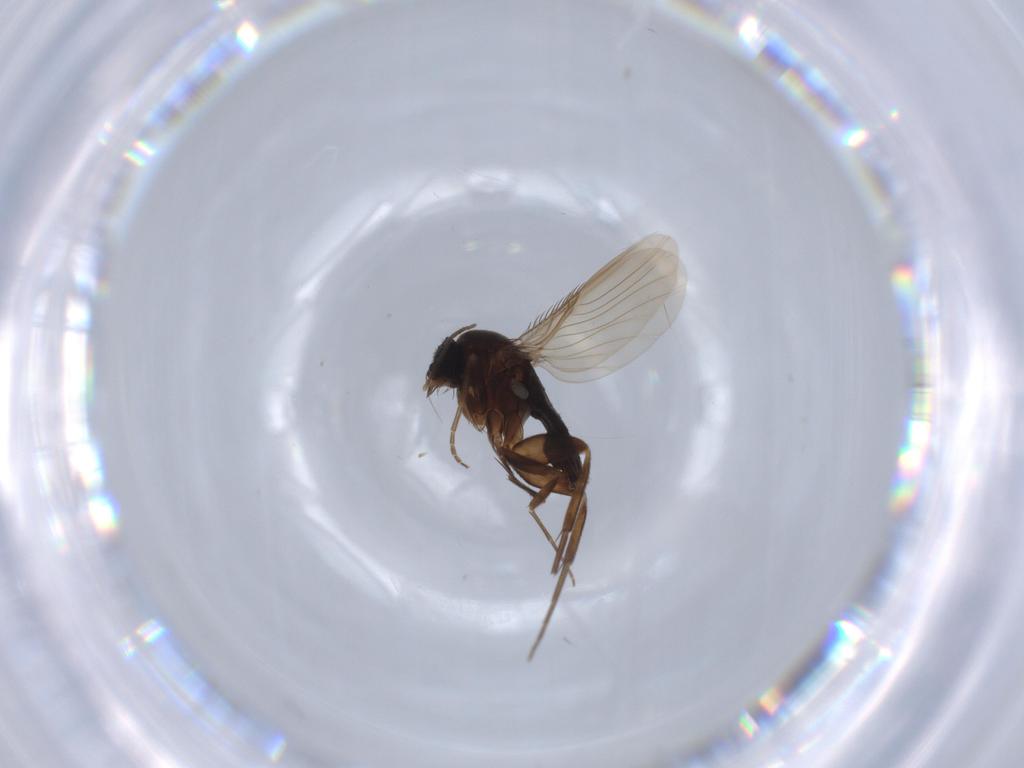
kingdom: Animalia
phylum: Arthropoda
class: Insecta
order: Diptera
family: Phoridae
